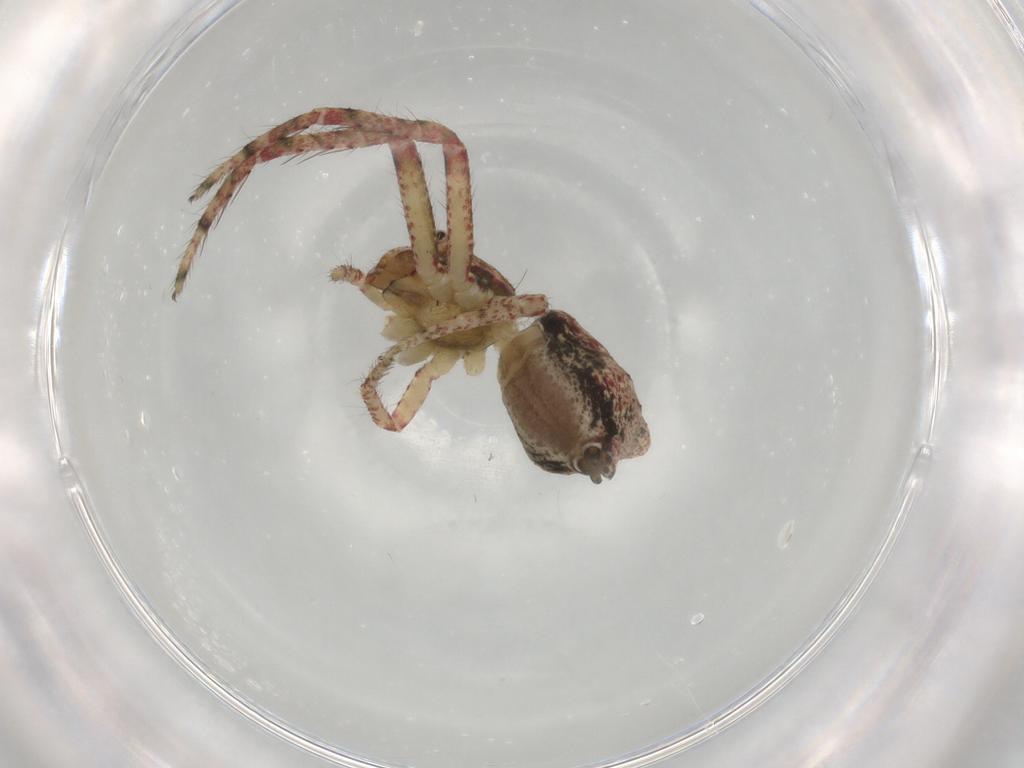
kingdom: Animalia
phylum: Arthropoda
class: Arachnida
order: Araneae
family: Thomisidae
